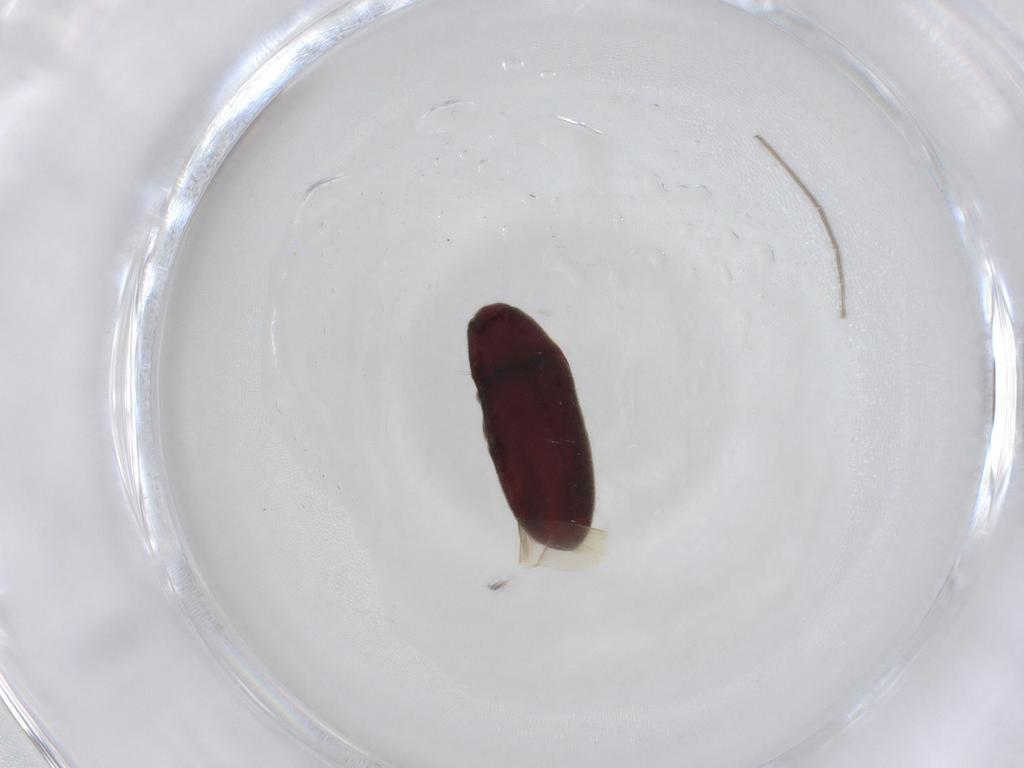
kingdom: Animalia
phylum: Arthropoda
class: Insecta
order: Coleoptera
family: Throscidae
